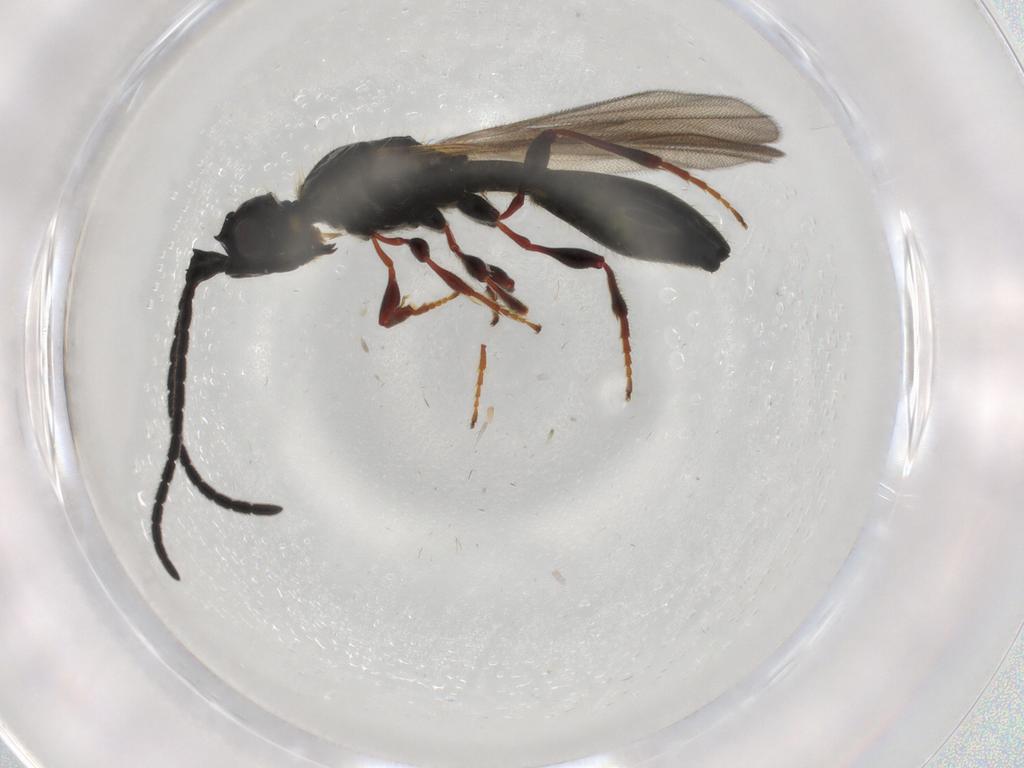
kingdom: Animalia
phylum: Arthropoda
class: Insecta
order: Hymenoptera
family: Diapriidae
